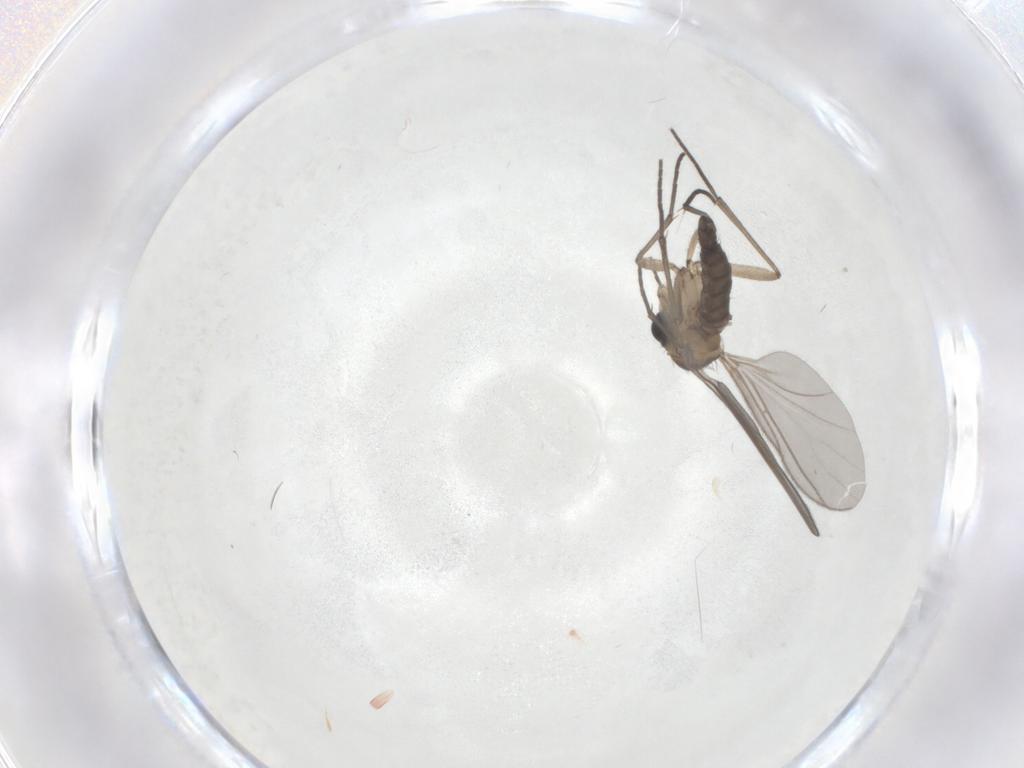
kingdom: Animalia
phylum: Arthropoda
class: Insecta
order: Diptera
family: Sciaridae
